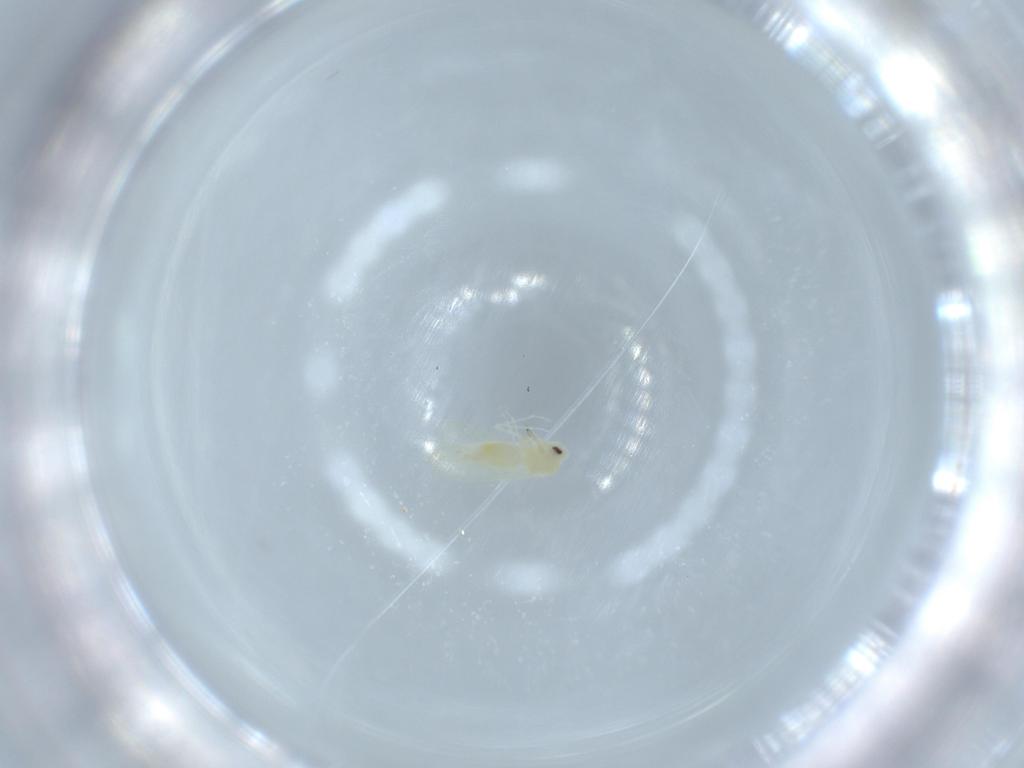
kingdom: Animalia
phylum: Arthropoda
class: Insecta
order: Hemiptera
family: Aleyrodidae
